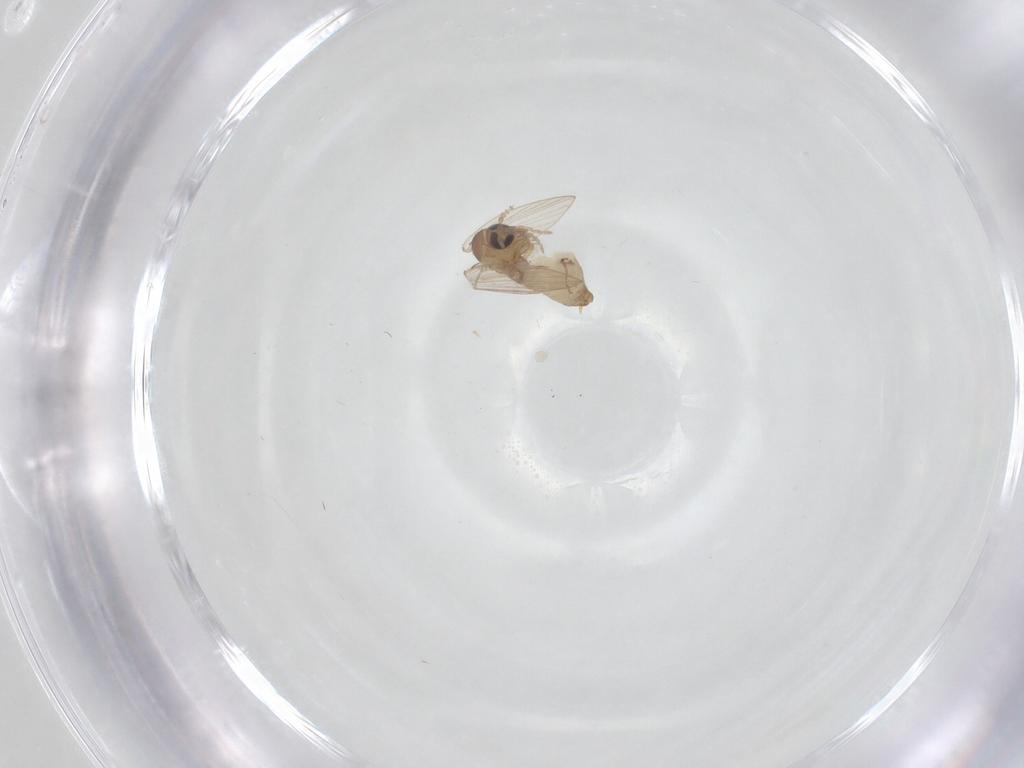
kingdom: Animalia
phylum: Arthropoda
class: Insecta
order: Diptera
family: Psychodidae
